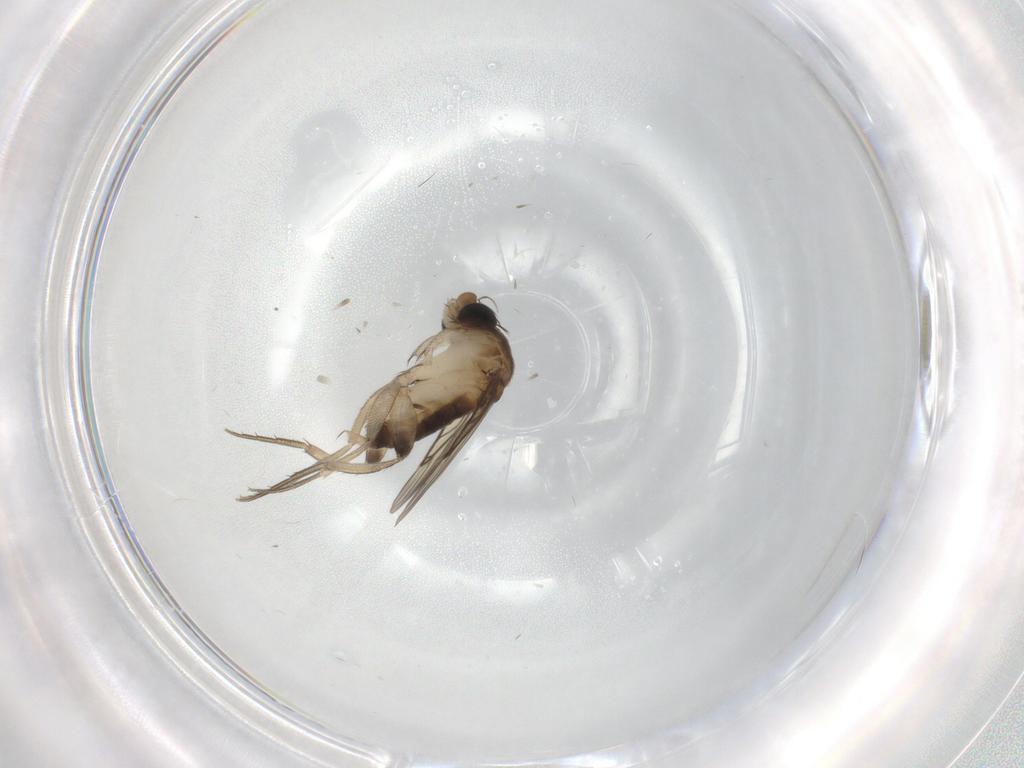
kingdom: Animalia
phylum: Arthropoda
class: Insecta
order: Diptera
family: Phoridae
